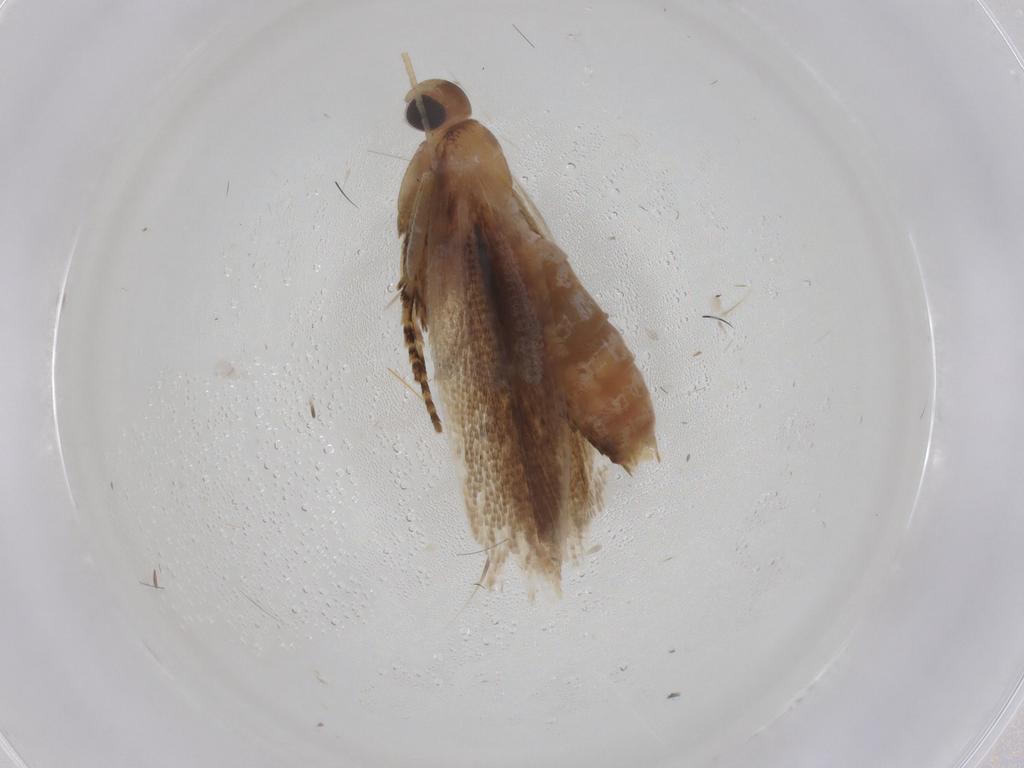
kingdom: Animalia
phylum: Arthropoda
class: Insecta
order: Lepidoptera
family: Gelechiidae
